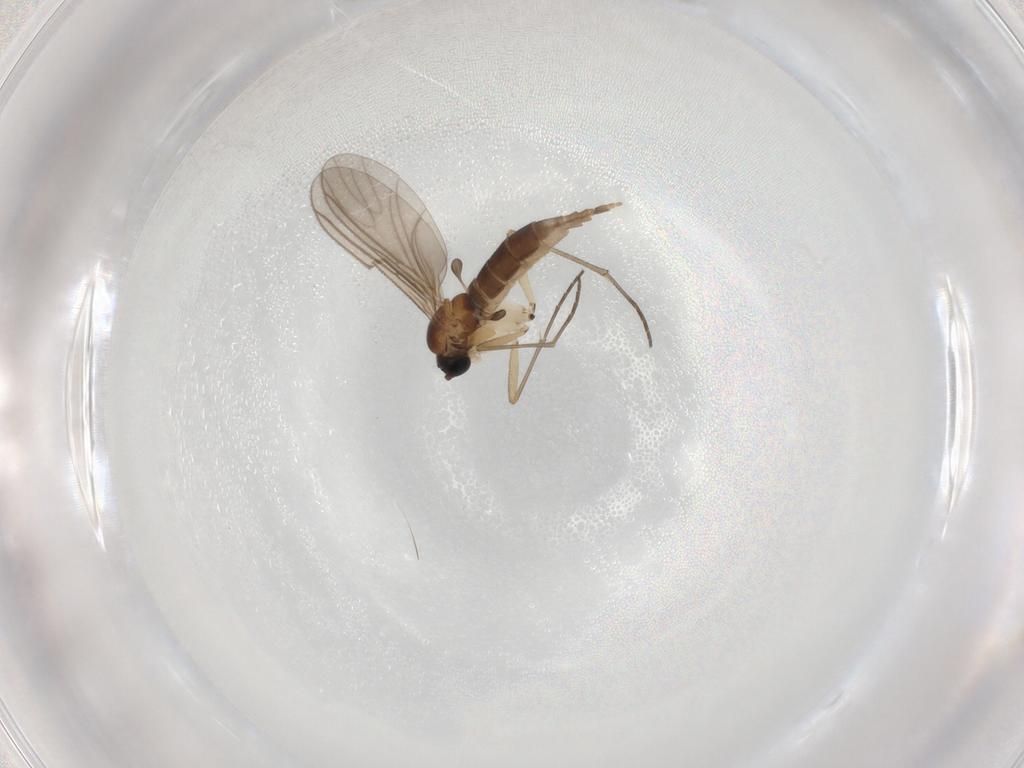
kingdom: Animalia
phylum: Arthropoda
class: Insecta
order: Diptera
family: Sciaridae
